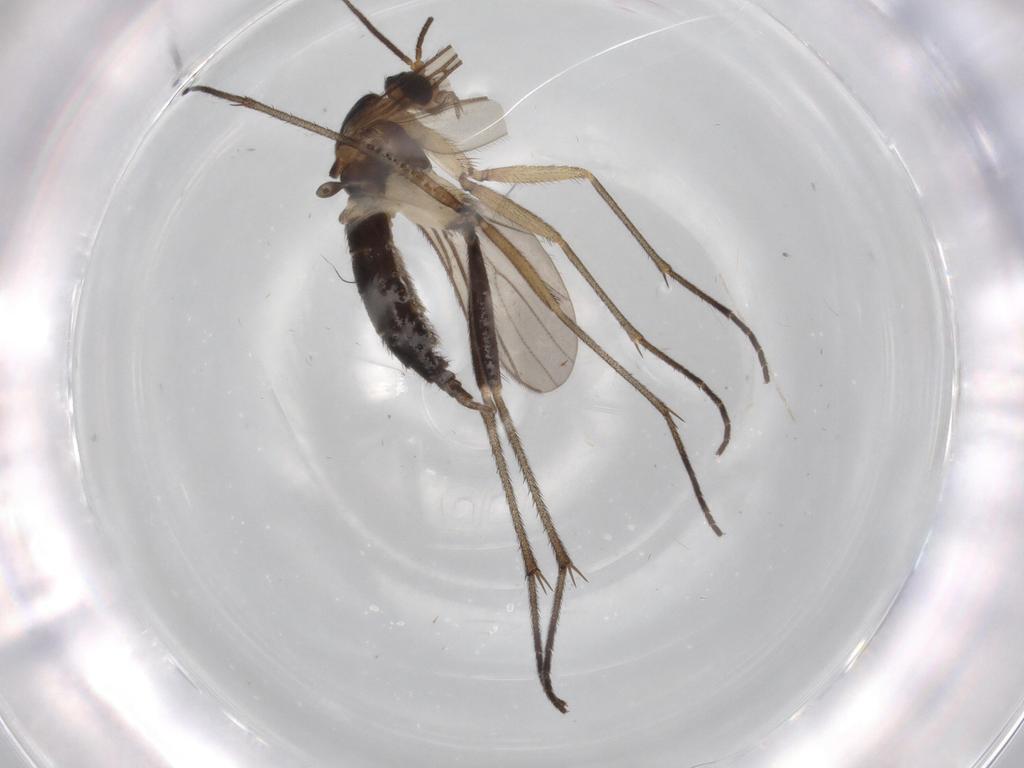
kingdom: Animalia
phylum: Arthropoda
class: Insecta
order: Diptera
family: Sciaridae
